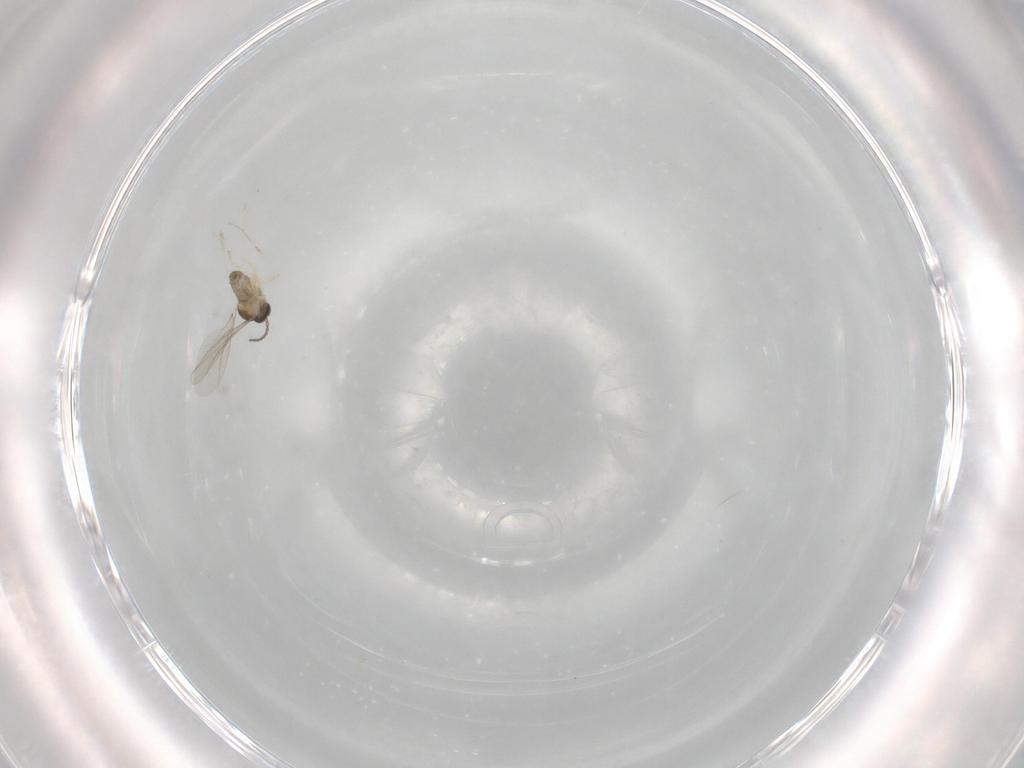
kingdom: Animalia
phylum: Arthropoda
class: Insecta
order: Diptera
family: Cecidomyiidae
